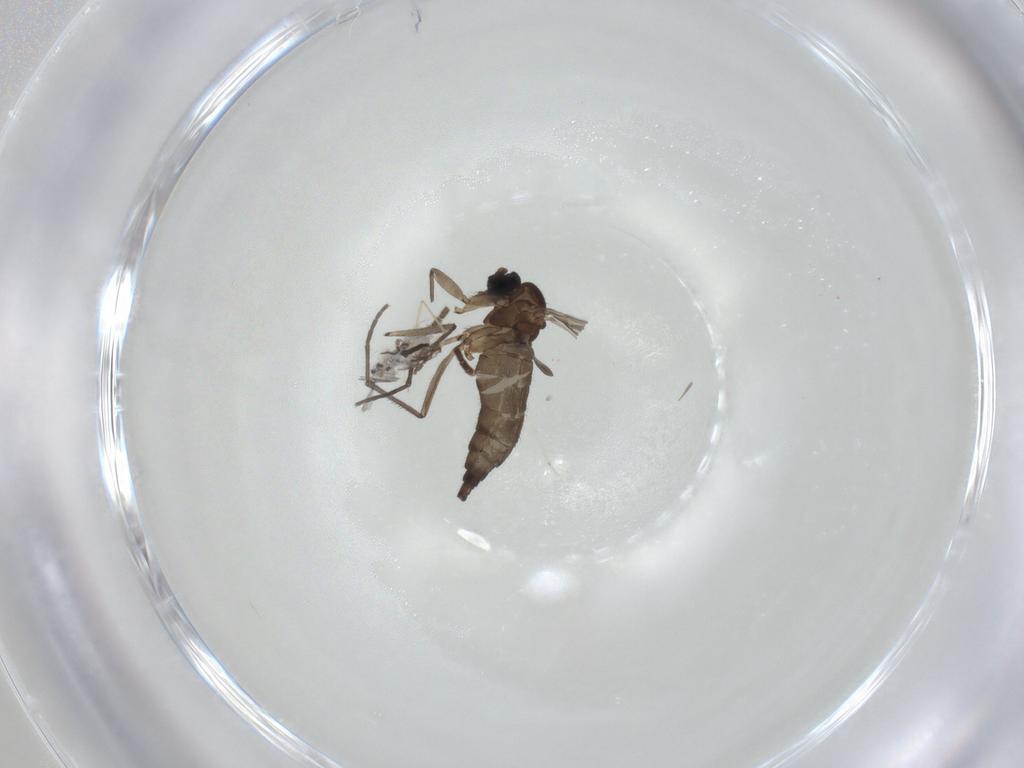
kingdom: Animalia
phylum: Arthropoda
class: Insecta
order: Diptera
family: Sciaridae
